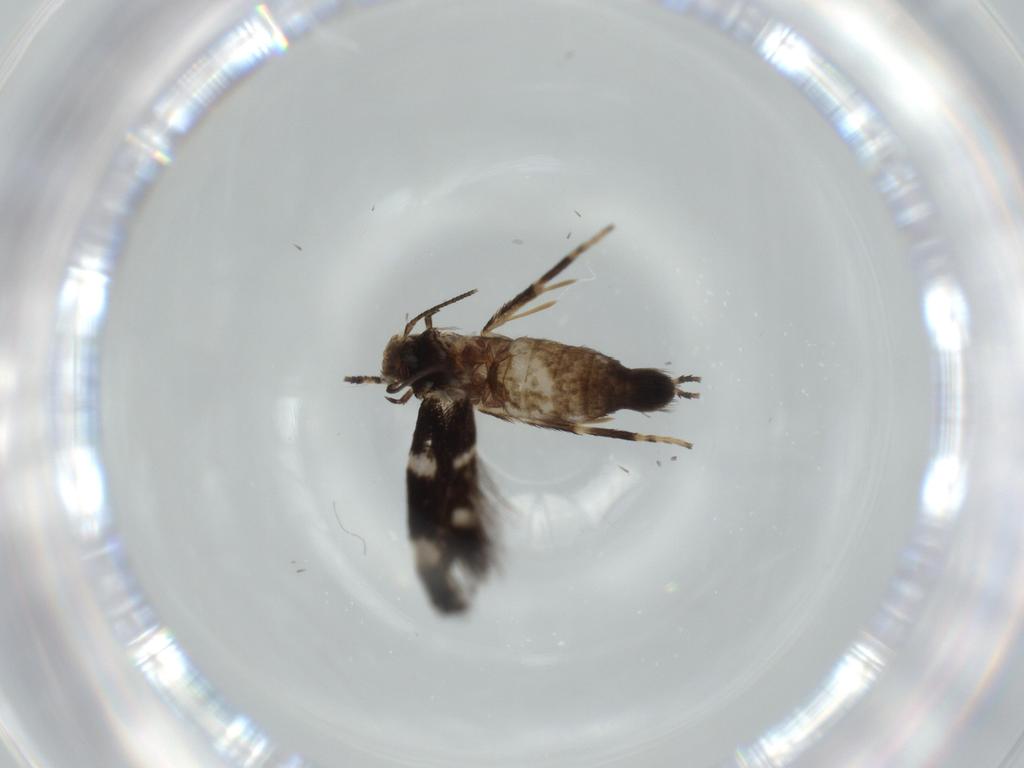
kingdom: Animalia
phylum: Arthropoda
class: Insecta
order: Lepidoptera
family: Cosmopterigidae
